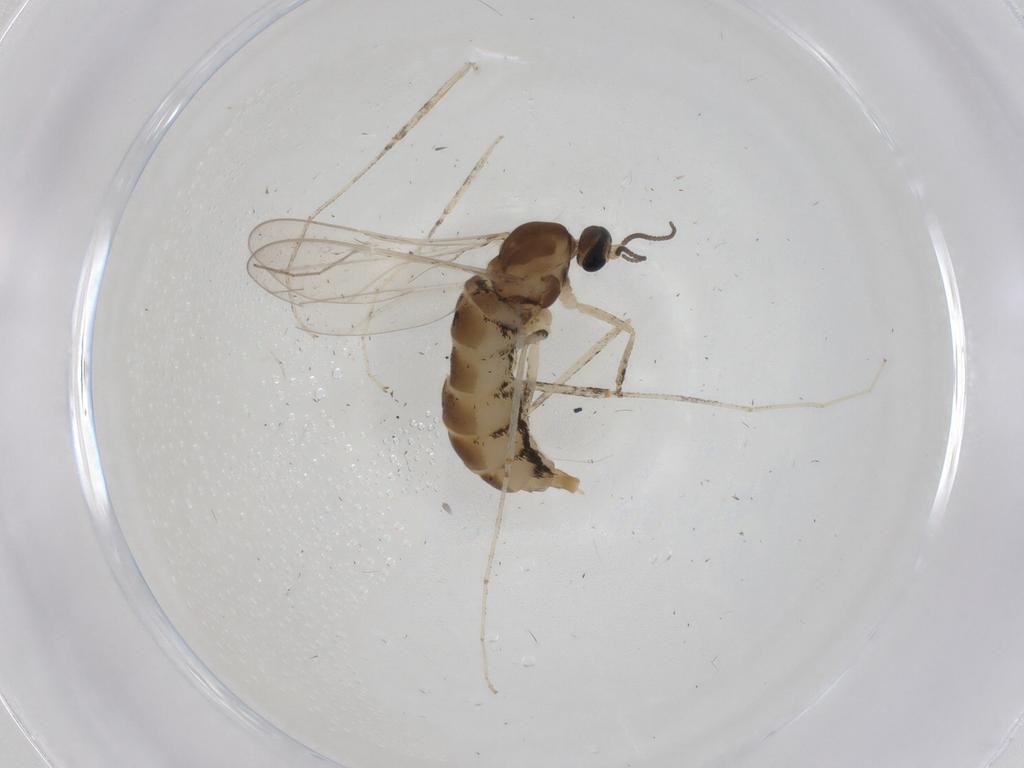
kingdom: Animalia
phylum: Arthropoda
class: Insecta
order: Diptera
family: Cecidomyiidae
